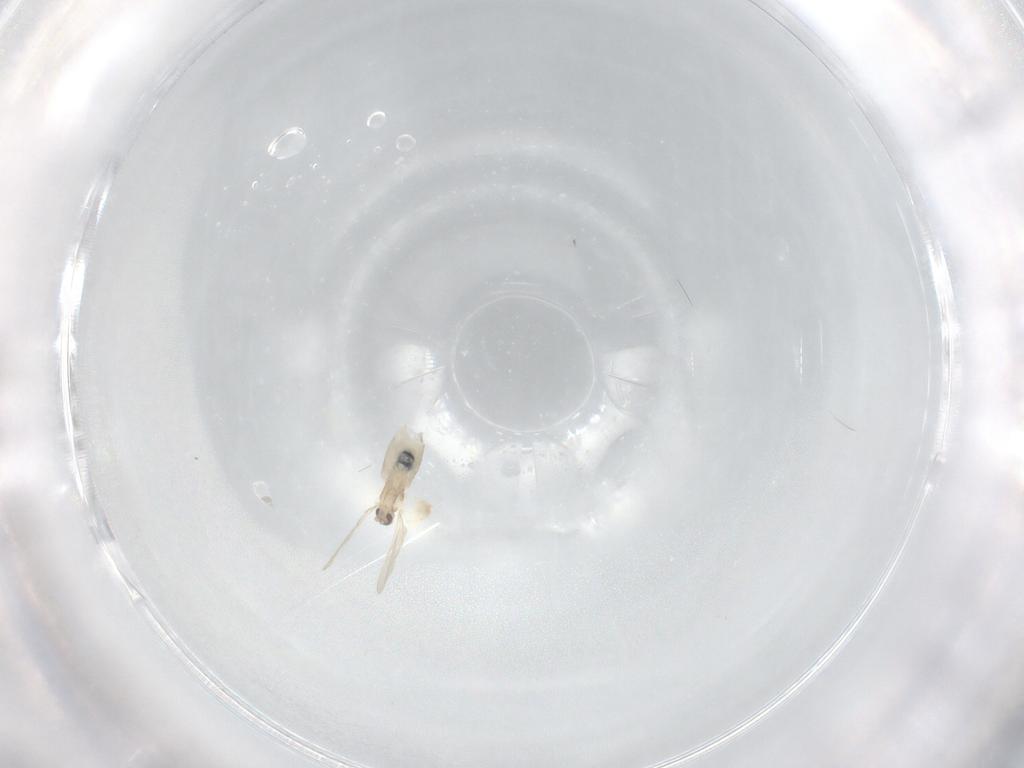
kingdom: Animalia
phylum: Arthropoda
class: Insecta
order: Diptera
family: Cecidomyiidae
